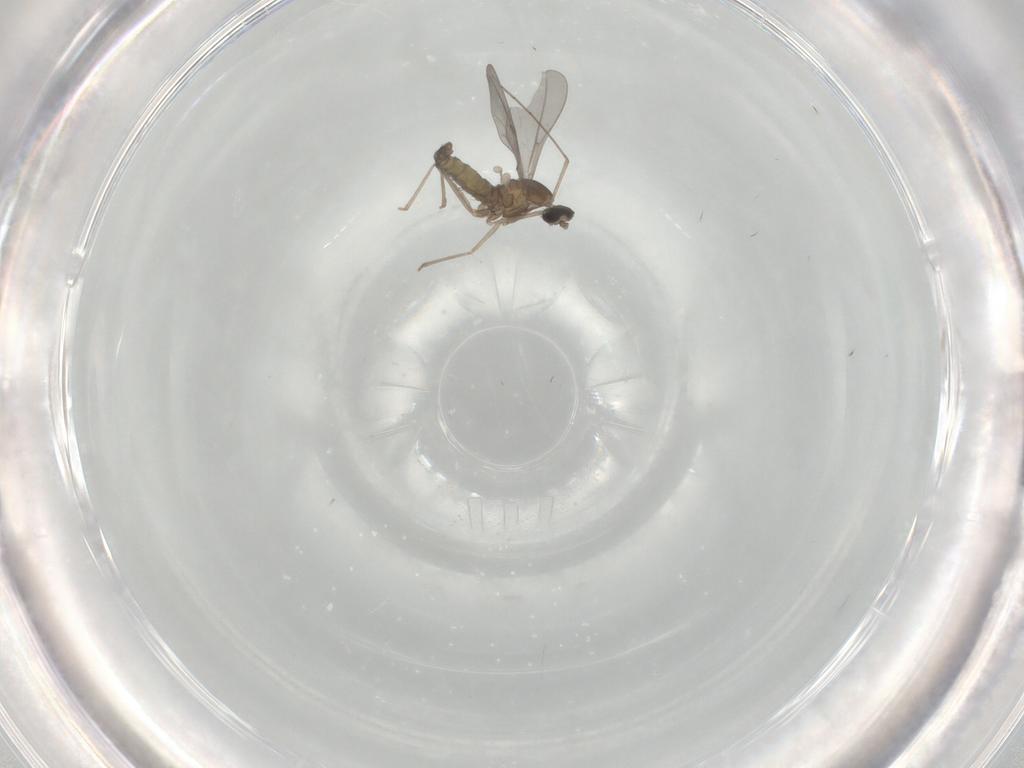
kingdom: Animalia
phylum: Arthropoda
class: Insecta
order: Diptera
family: Cecidomyiidae
